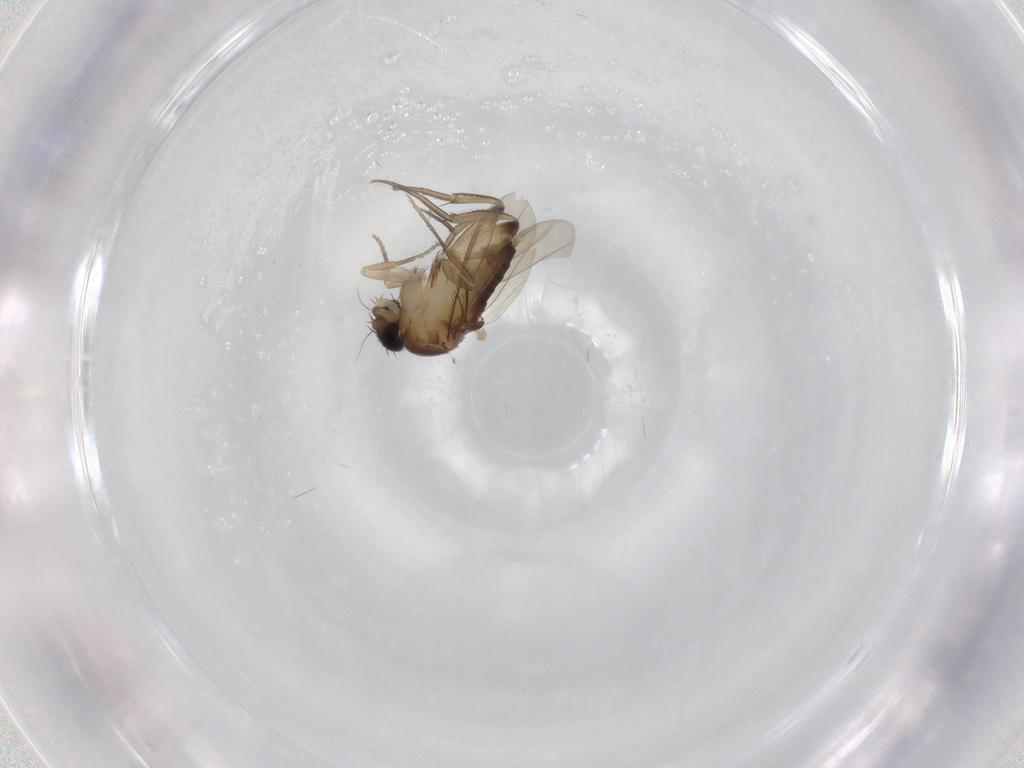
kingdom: Animalia
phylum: Arthropoda
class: Insecta
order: Diptera
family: Phoridae
